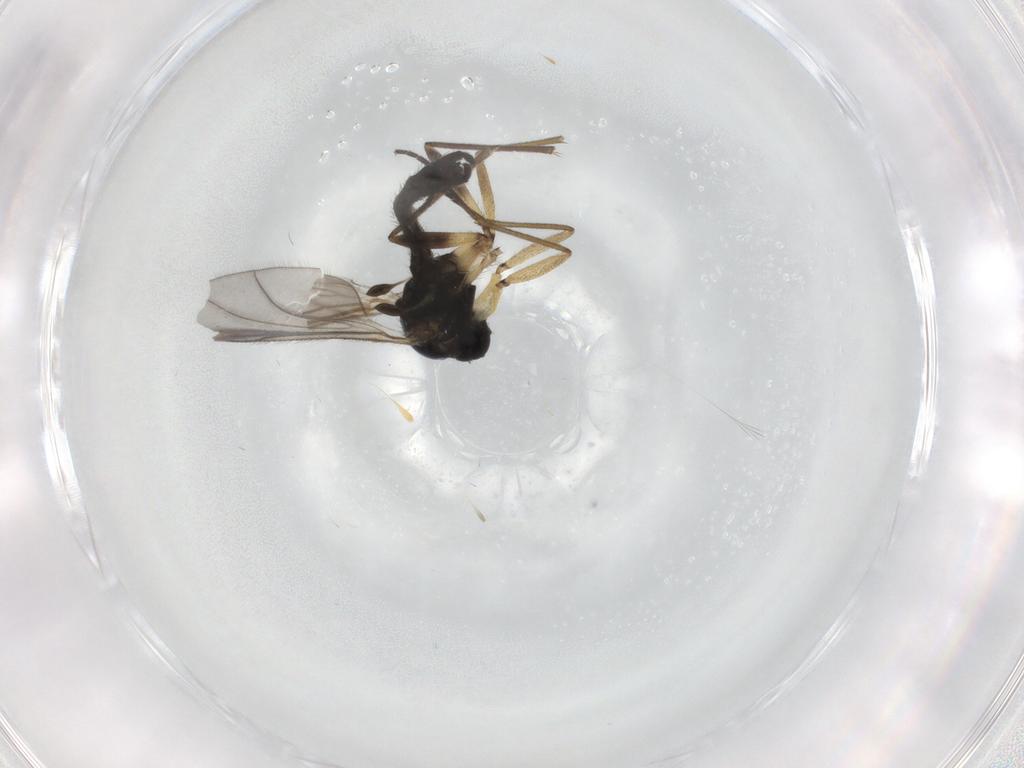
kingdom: Animalia
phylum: Arthropoda
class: Insecta
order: Diptera
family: Sciaridae
